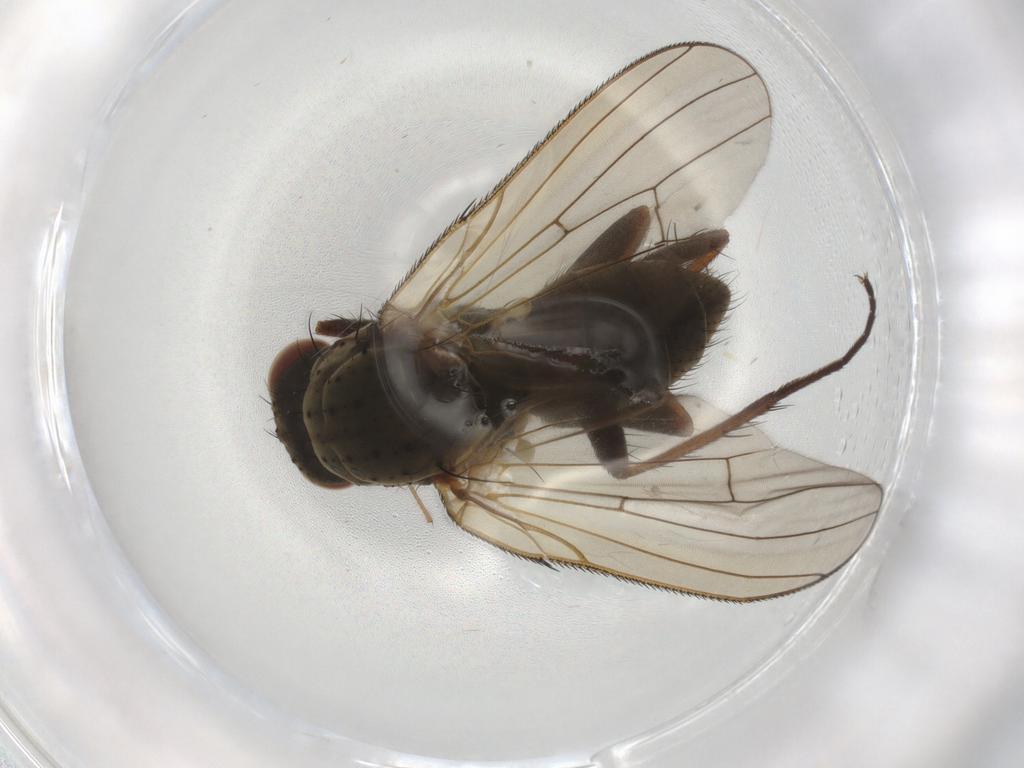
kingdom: Animalia
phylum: Arthropoda
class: Insecta
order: Diptera
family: Anthomyiidae
